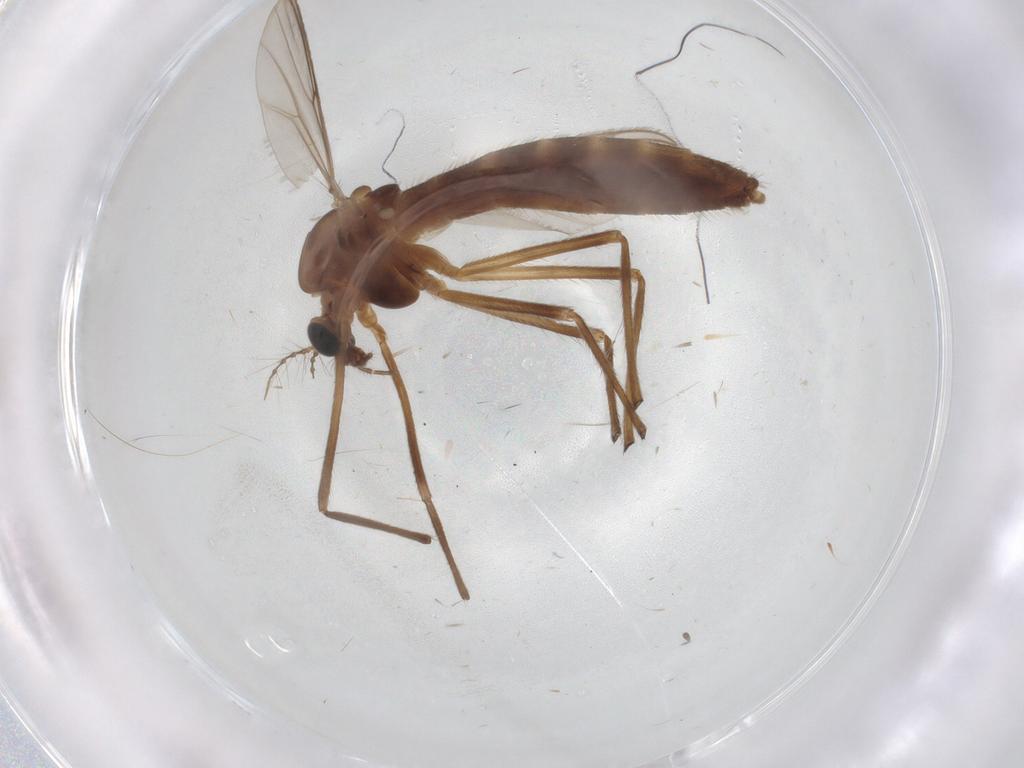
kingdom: Animalia
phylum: Arthropoda
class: Insecta
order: Diptera
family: Chironomidae
